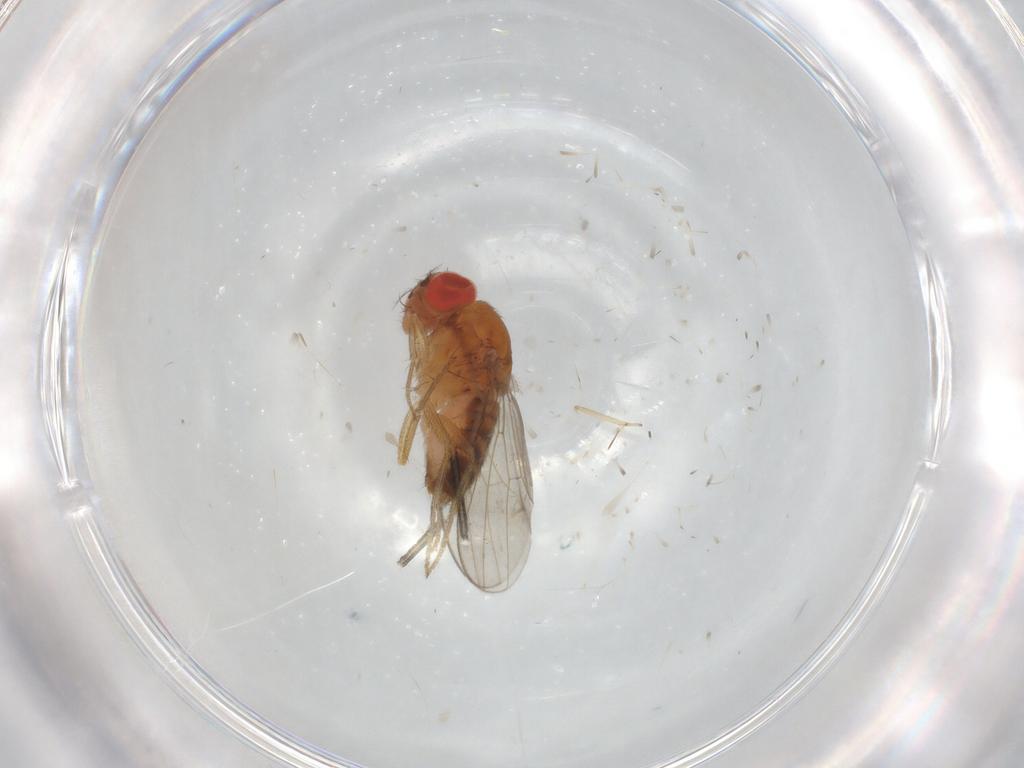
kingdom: Animalia
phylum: Arthropoda
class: Insecta
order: Diptera
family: Drosophilidae
